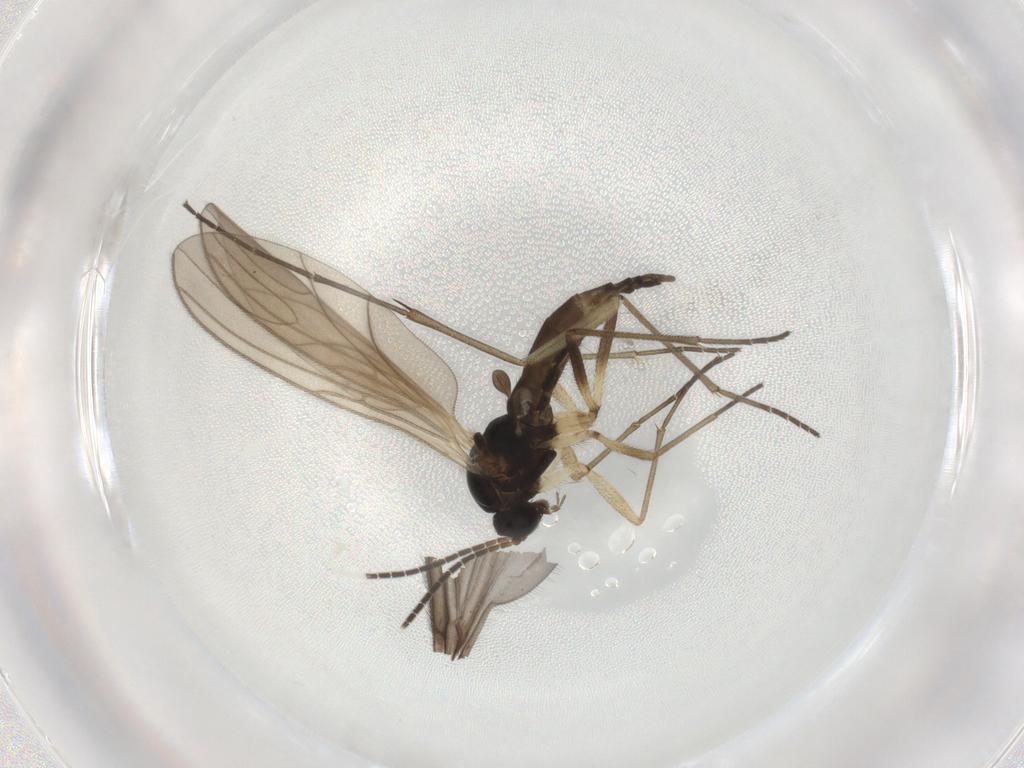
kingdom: Animalia
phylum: Arthropoda
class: Insecta
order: Diptera
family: Sciaridae
